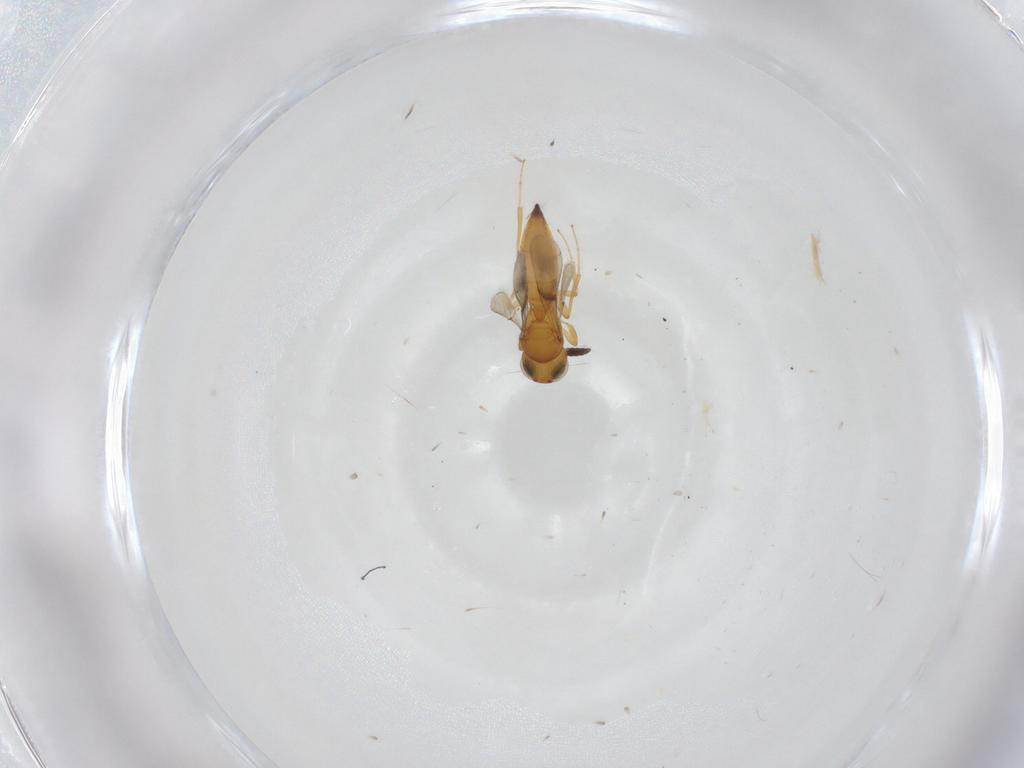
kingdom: Animalia
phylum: Arthropoda
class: Insecta
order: Hymenoptera
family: Scelionidae
